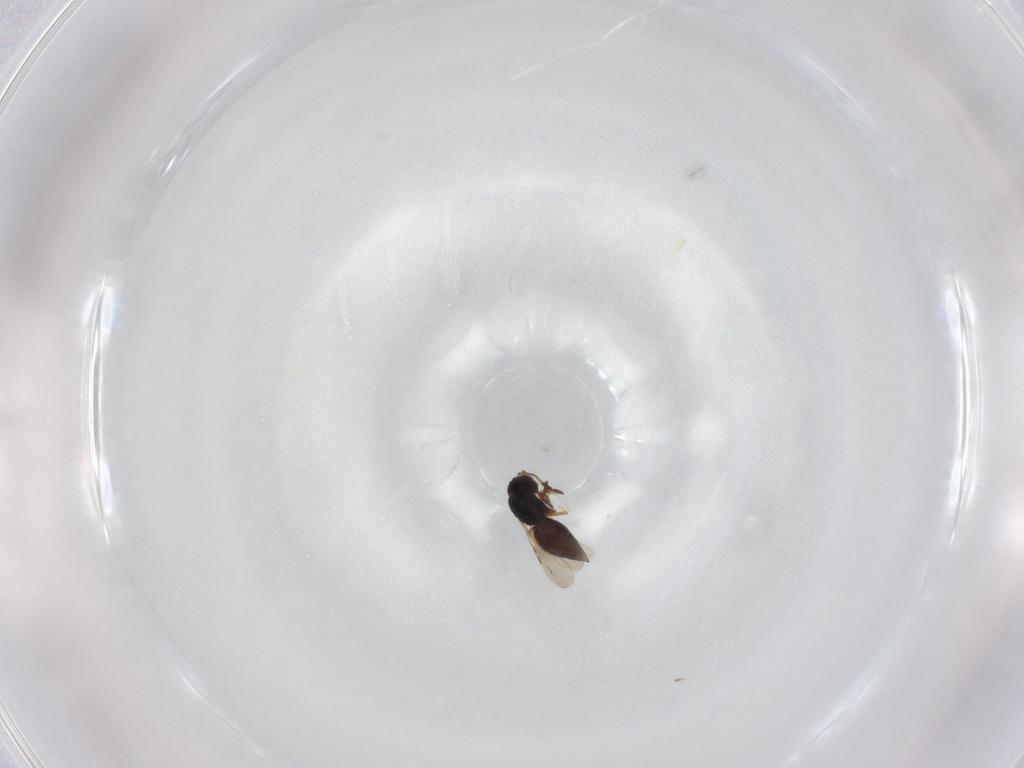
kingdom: Animalia
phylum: Arthropoda
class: Insecta
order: Hymenoptera
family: Diapriidae
